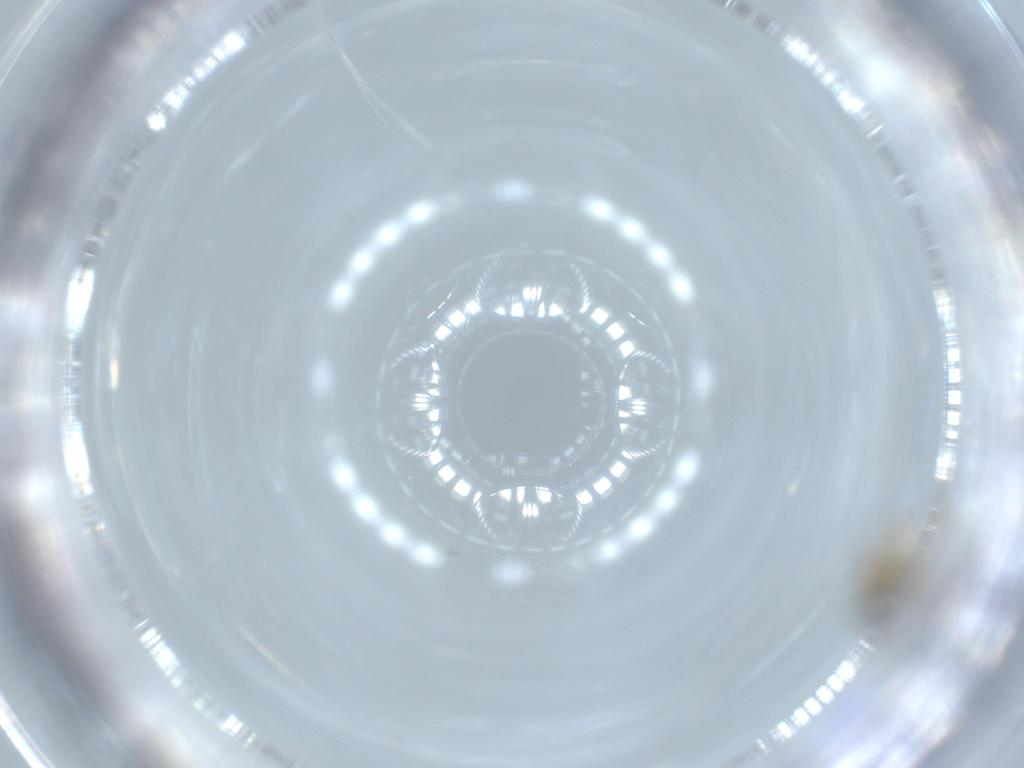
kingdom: Animalia
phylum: Arthropoda
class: Insecta
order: Diptera
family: Cecidomyiidae
